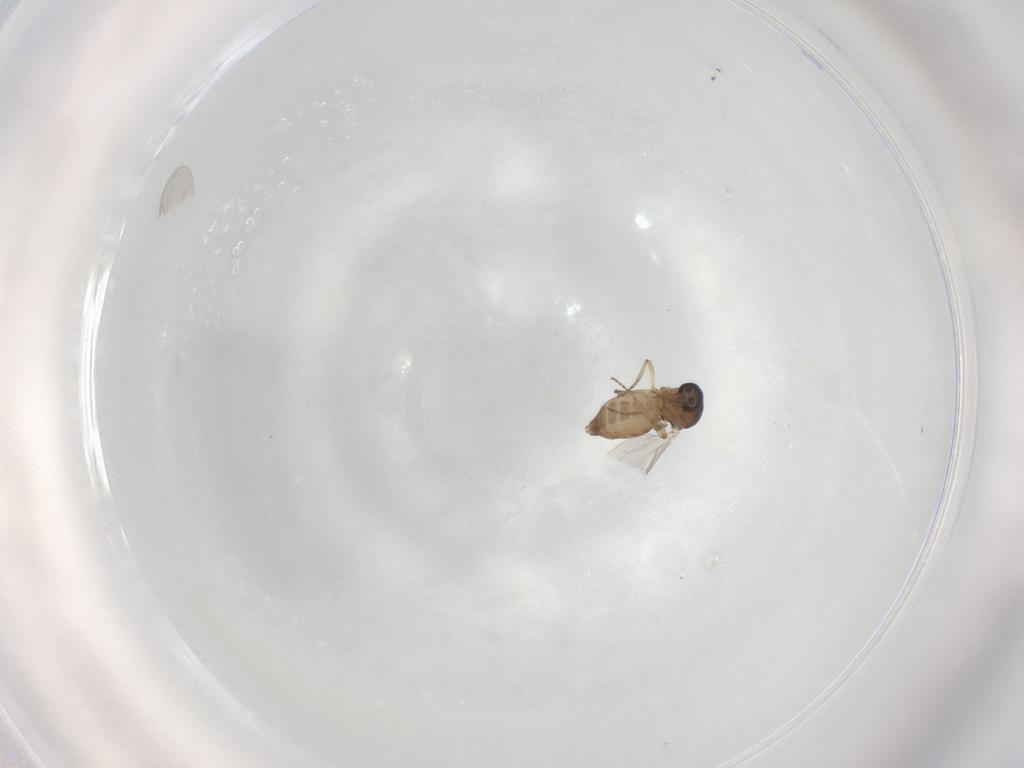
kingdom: Animalia
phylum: Arthropoda
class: Insecta
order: Diptera
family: Ceratopogonidae
